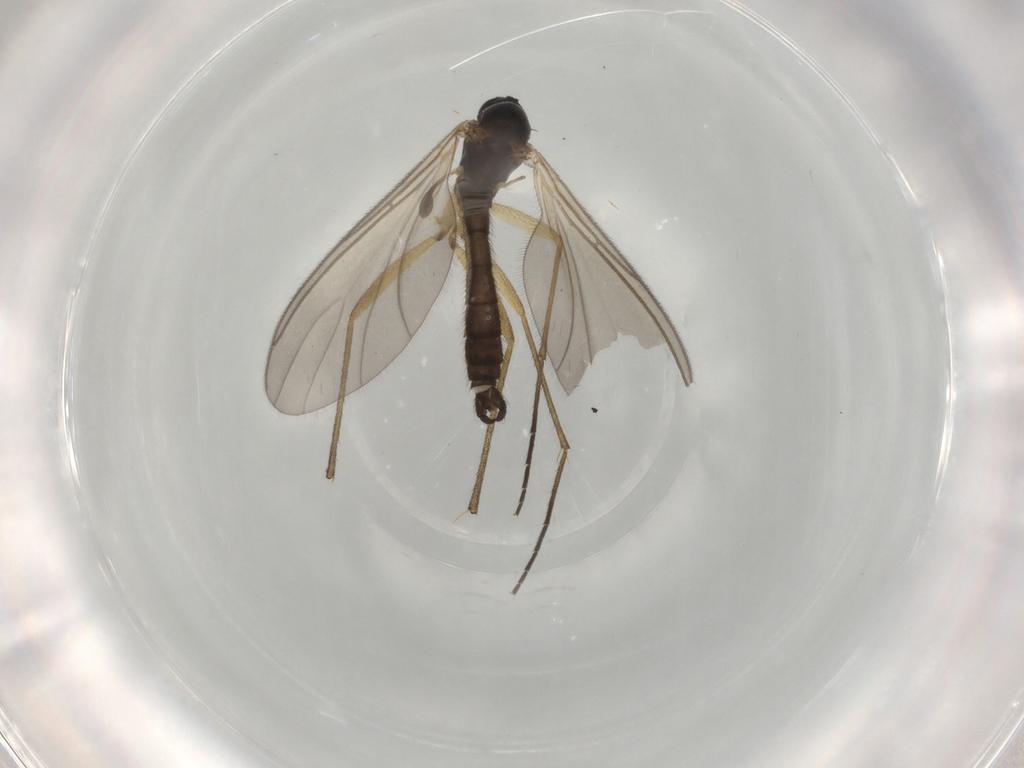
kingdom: Animalia
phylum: Arthropoda
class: Insecta
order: Diptera
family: Sciaridae
